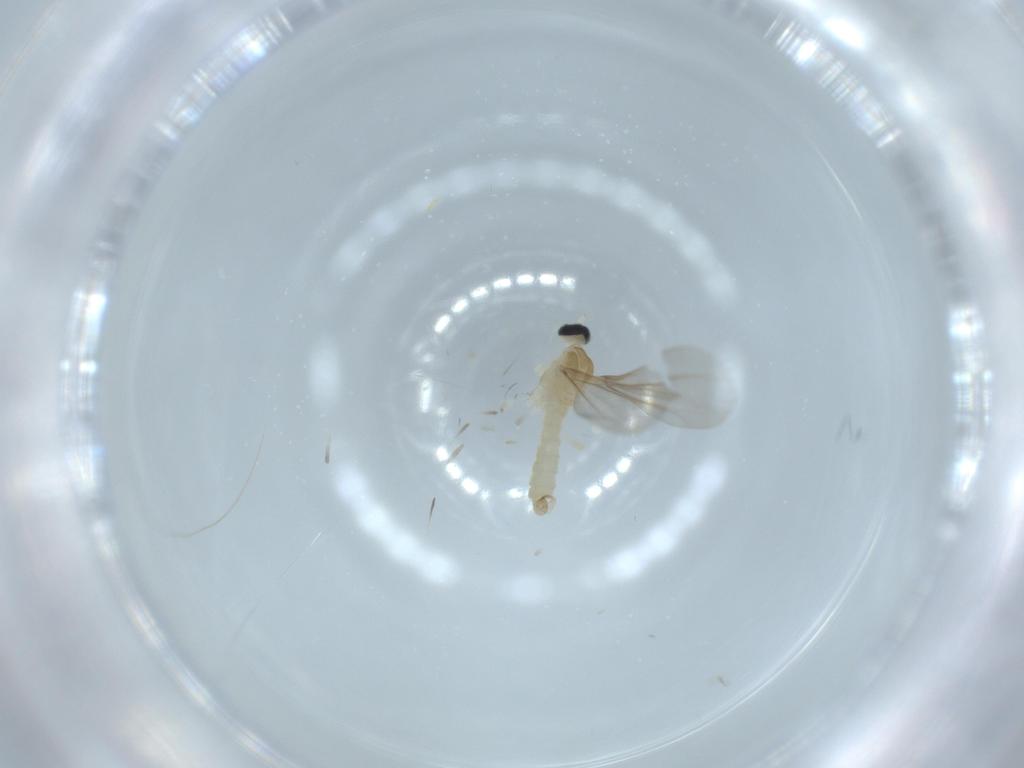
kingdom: Animalia
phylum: Arthropoda
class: Insecta
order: Diptera
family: Cecidomyiidae
